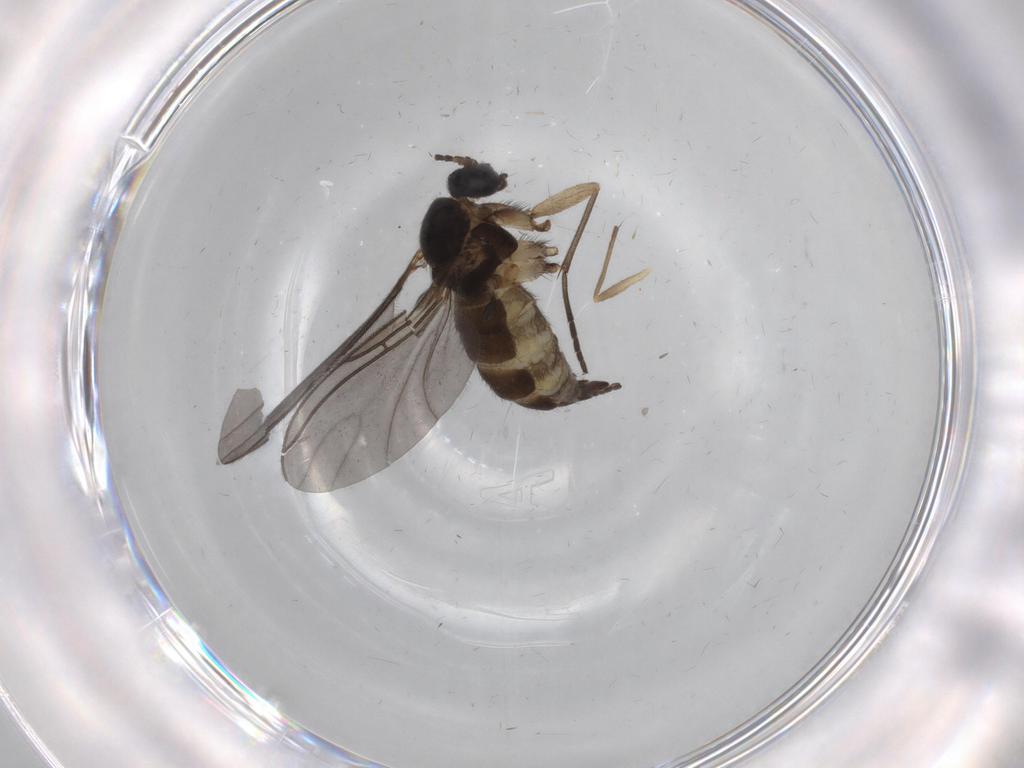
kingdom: Animalia
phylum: Arthropoda
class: Insecta
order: Diptera
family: Sciaridae
